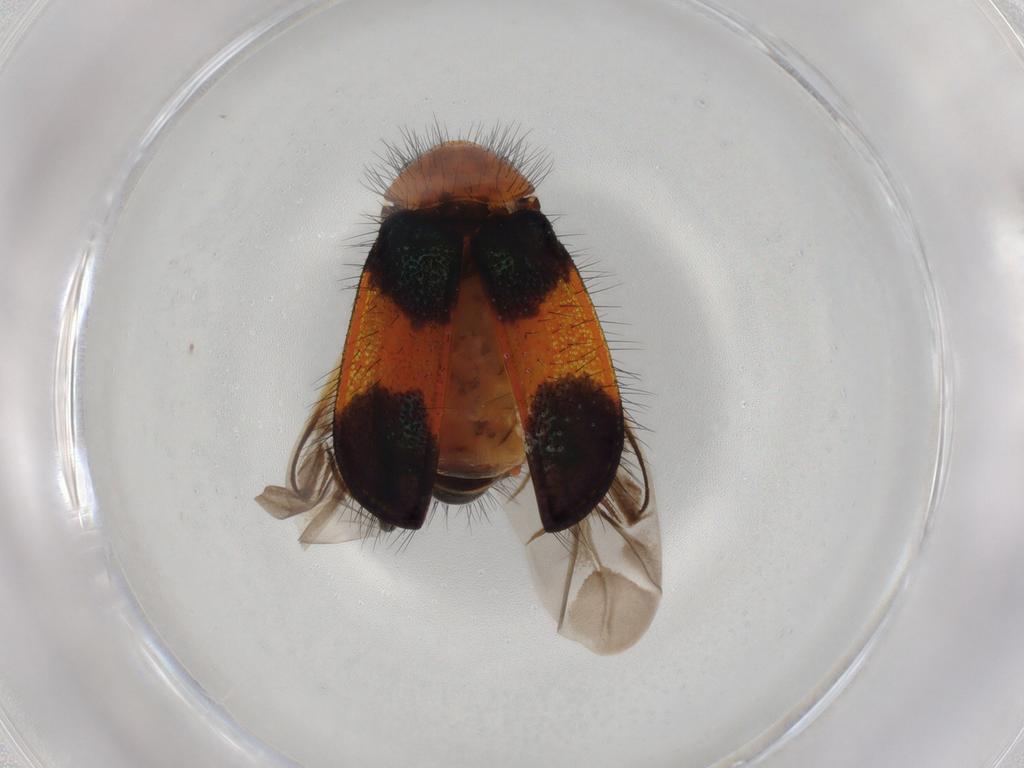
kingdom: Animalia
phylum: Arthropoda
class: Insecta
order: Coleoptera
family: Melyridae
